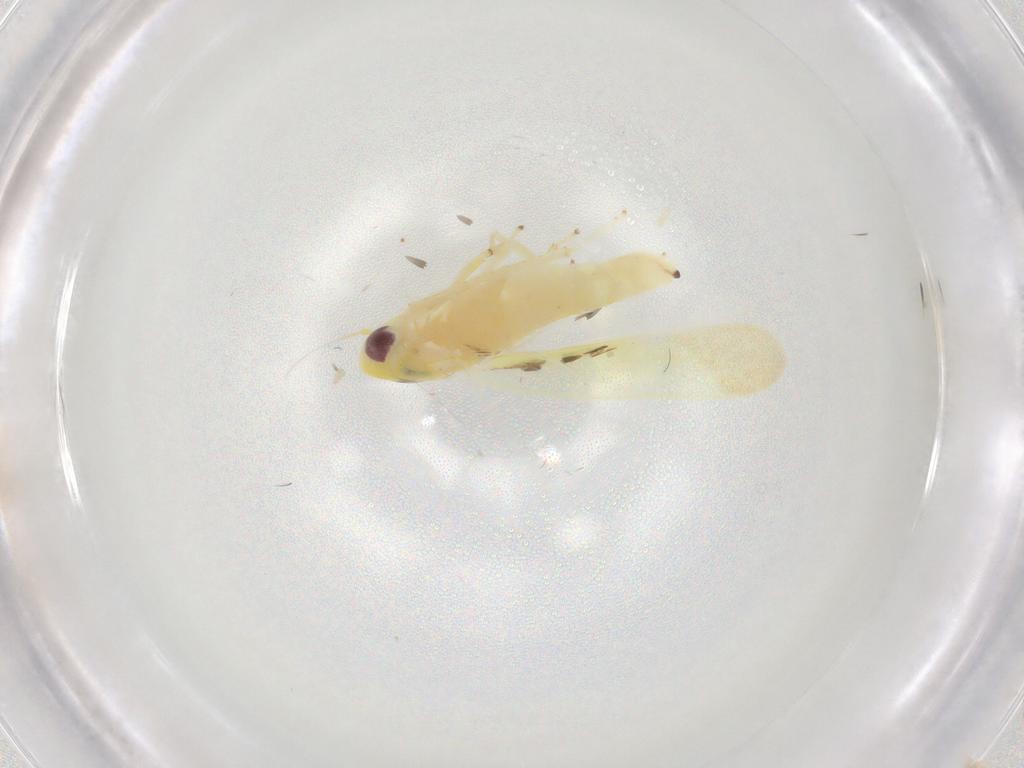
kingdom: Animalia
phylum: Arthropoda
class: Insecta
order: Hemiptera
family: Cicadellidae
